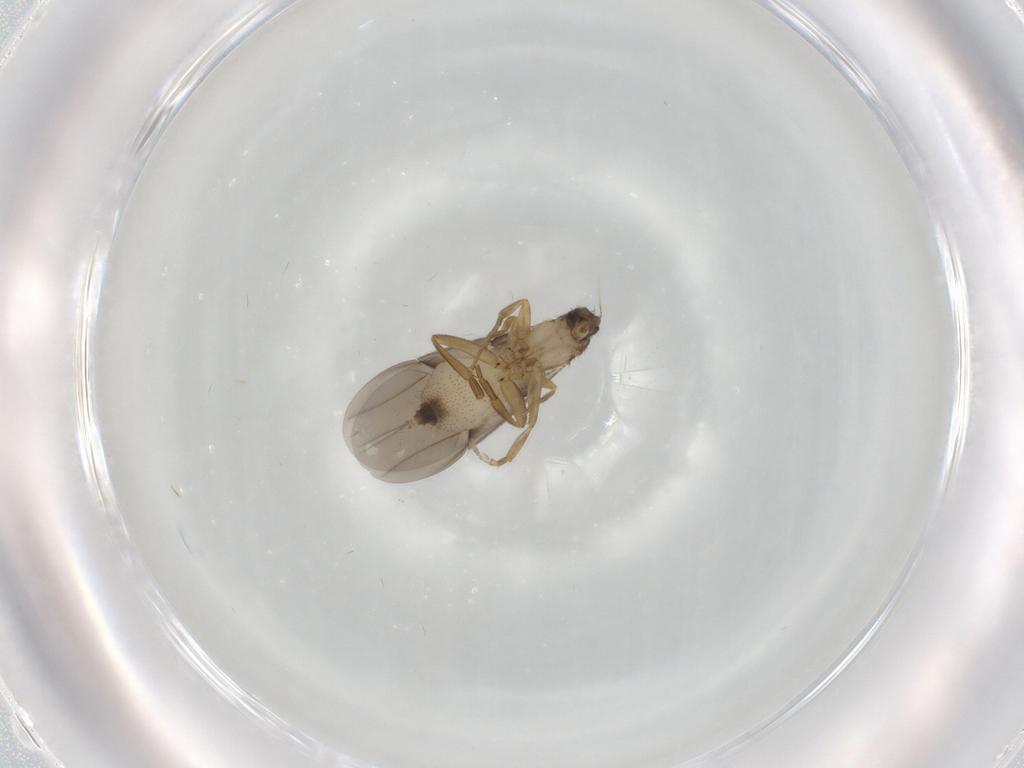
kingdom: Animalia
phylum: Arthropoda
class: Insecta
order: Diptera
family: Phoridae
